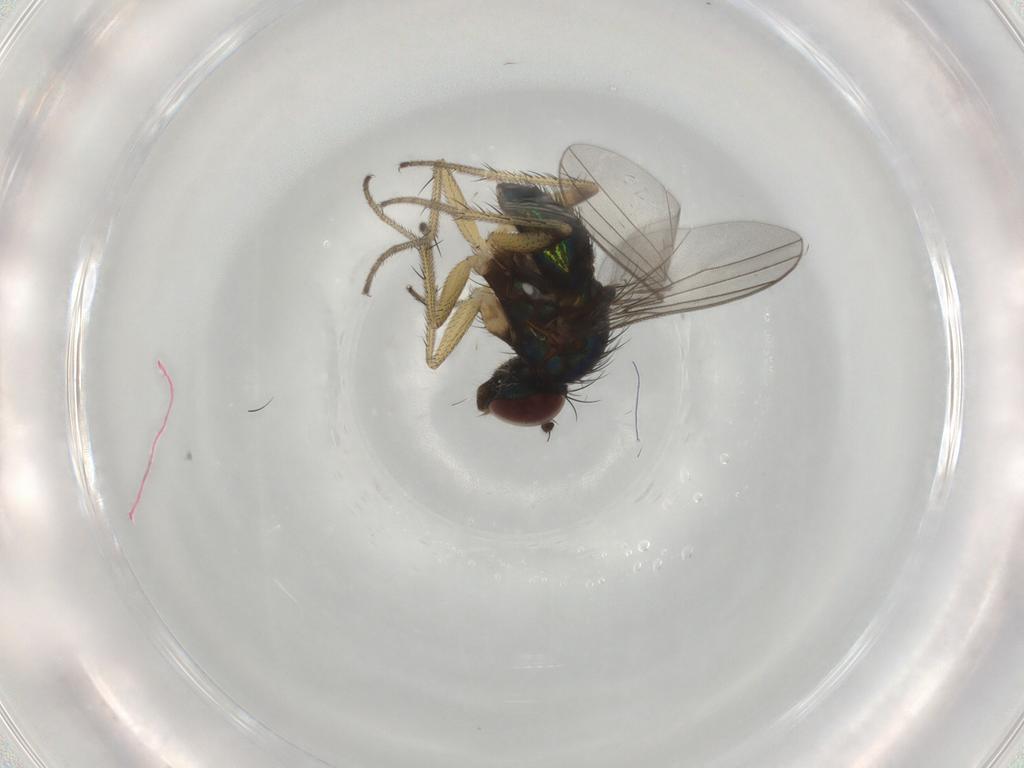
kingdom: Animalia
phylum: Arthropoda
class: Insecta
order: Diptera
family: Dolichopodidae
